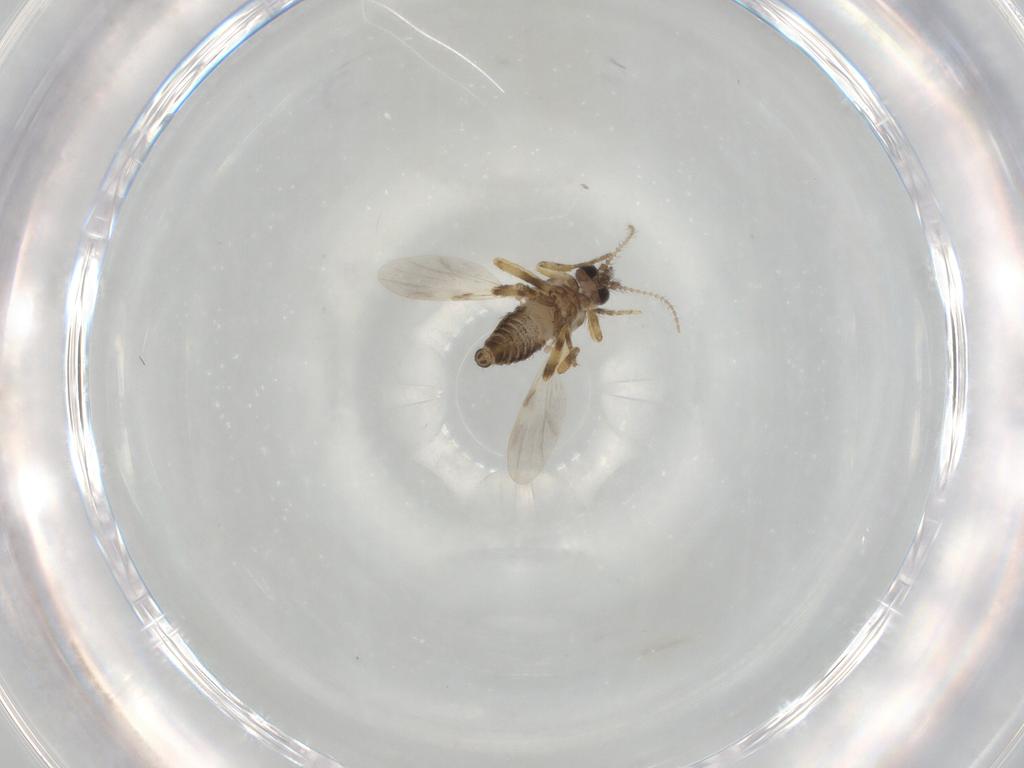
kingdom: Animalia
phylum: Arthropoda
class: Insecta
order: Diptera
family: Ceratopogonidae
